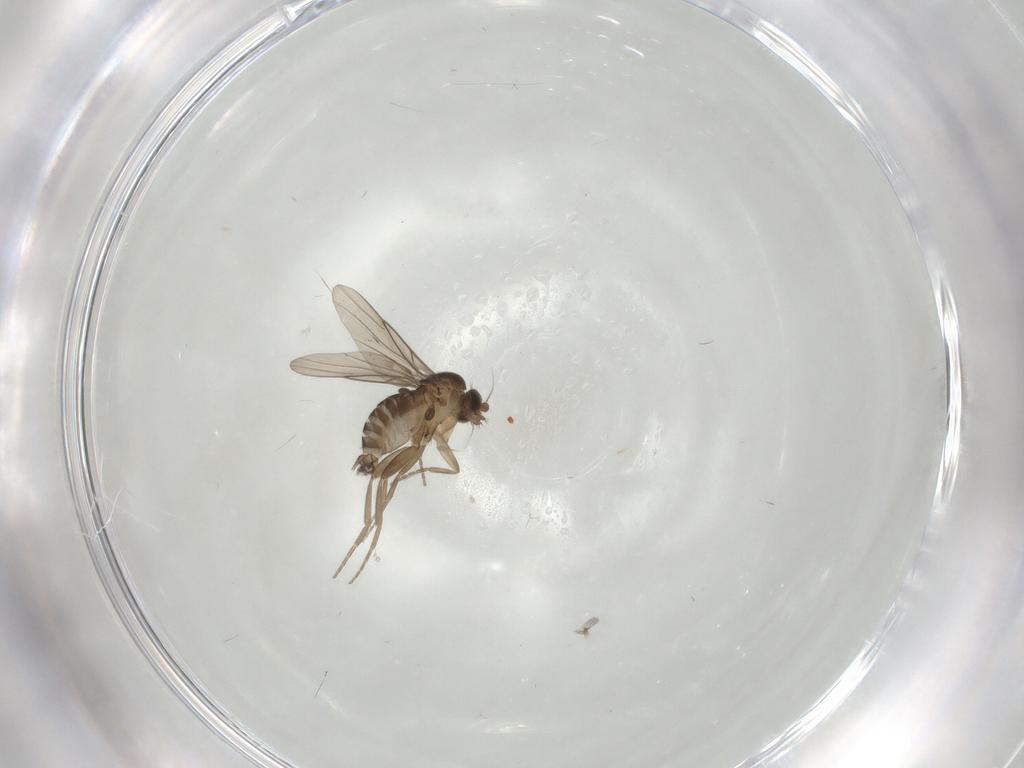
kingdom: Animalia
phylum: Arthropoda
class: Insecta
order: Diptera
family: Phoridae
